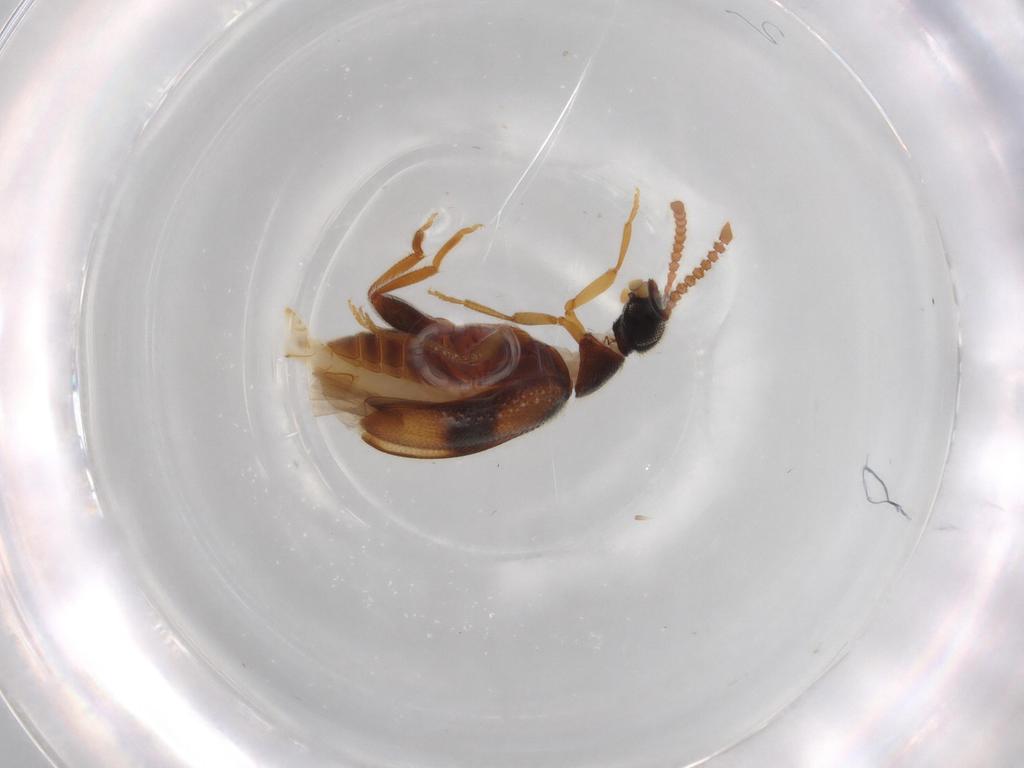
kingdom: Animalia
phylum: Arthropoda
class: Insecta
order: Coleoptera
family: Aderidae
